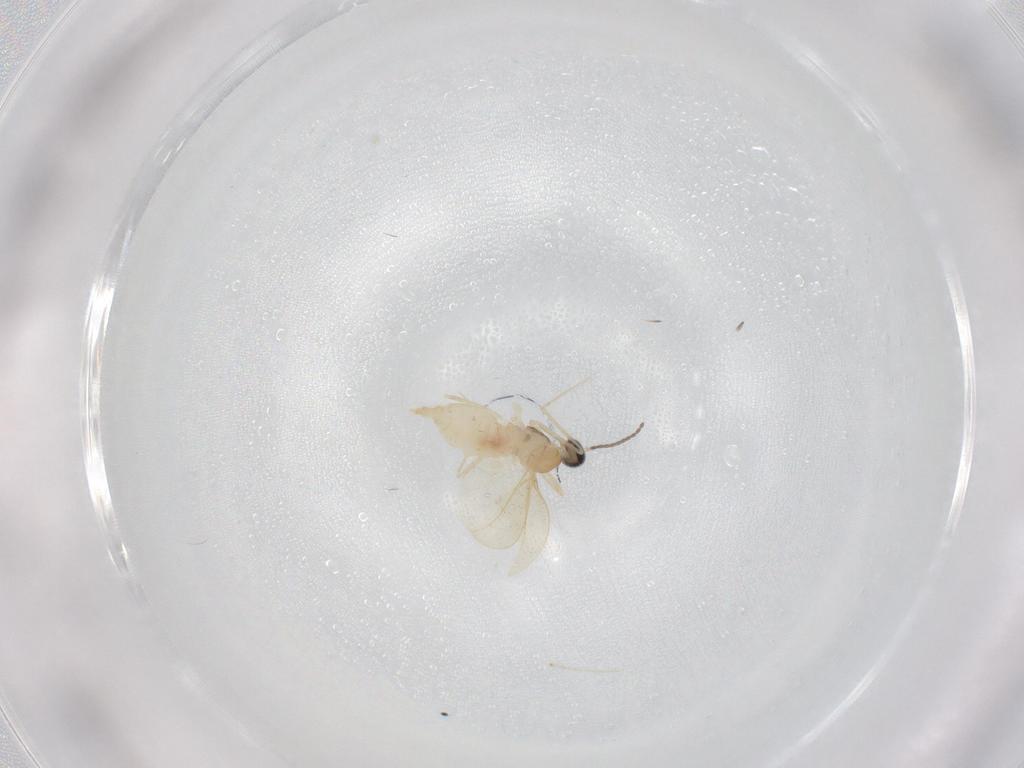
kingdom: Animalia
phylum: Arthropoda
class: Insecta
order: Diptera
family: Cecidomyiidae
